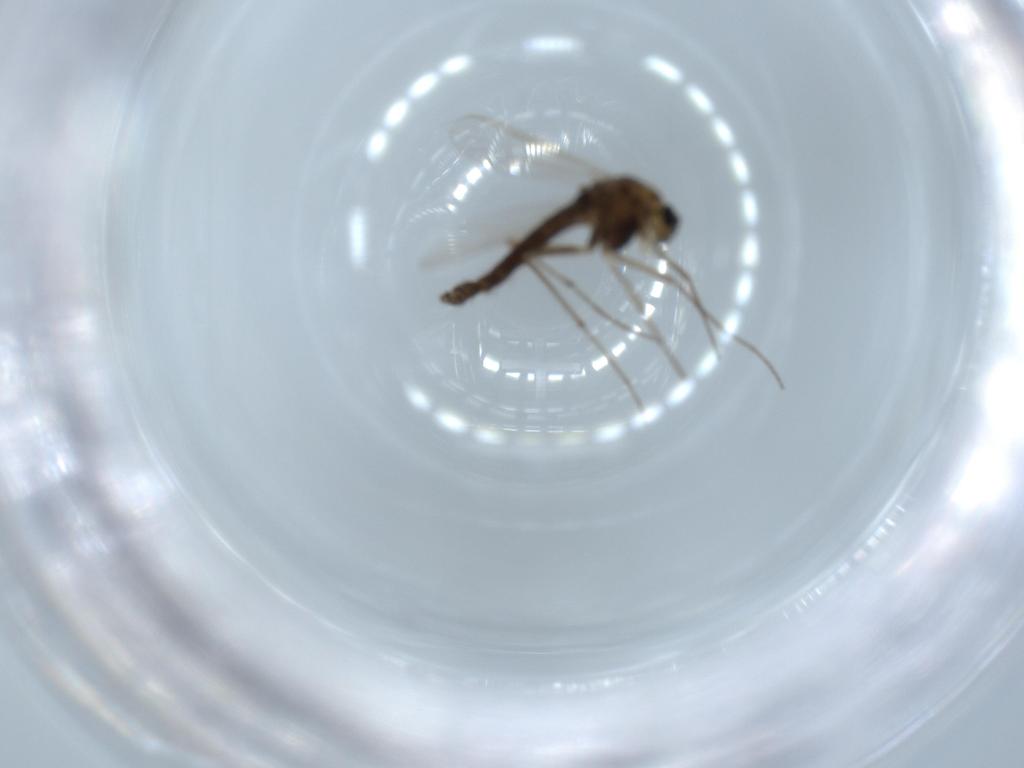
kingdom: Animalia
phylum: Arthropoda
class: Insecta
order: Diptera
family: Chironomidae
